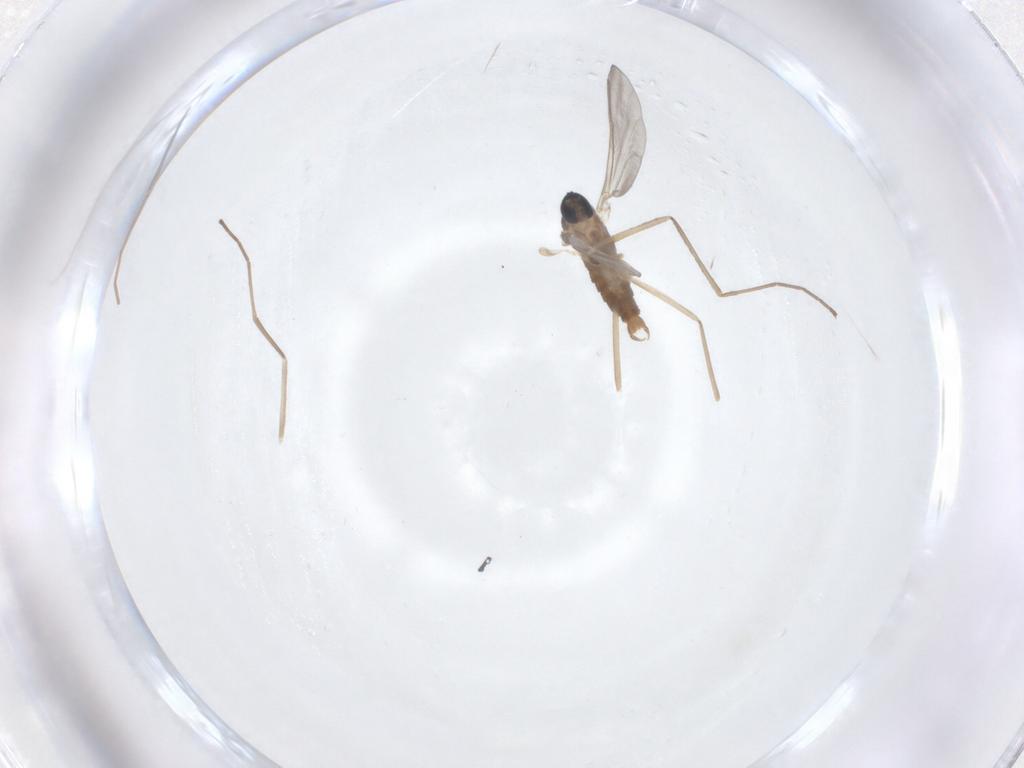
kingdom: Animalia
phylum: Arthropoda
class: Insecta
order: Diptera
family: Cecidomyiidae
